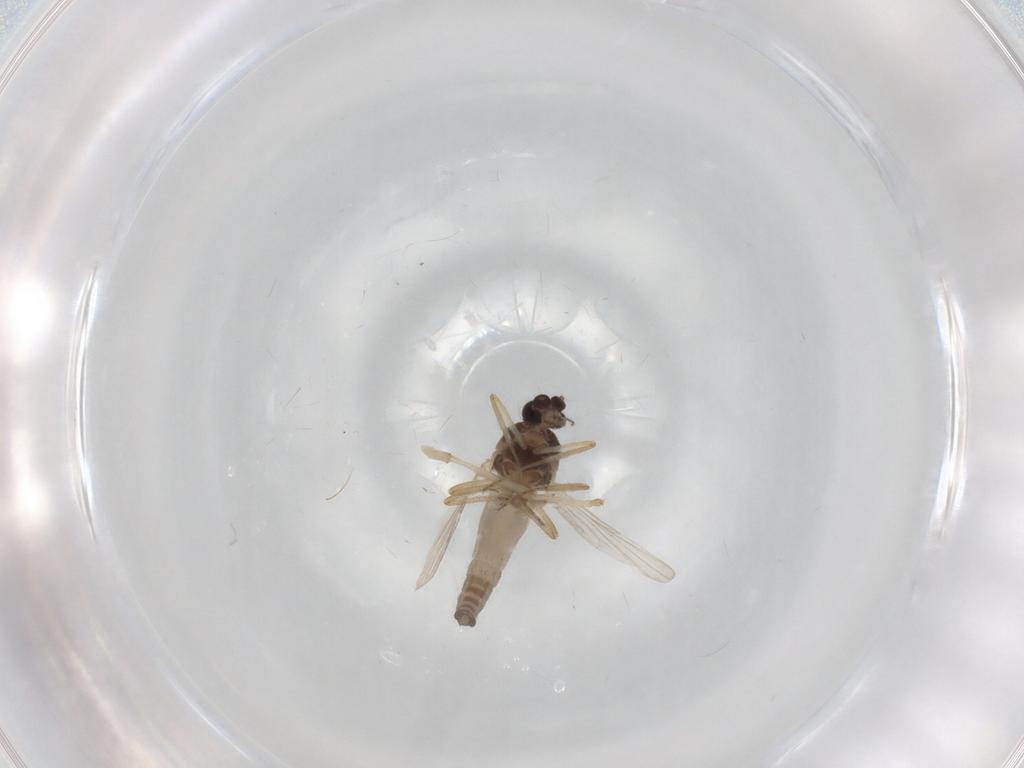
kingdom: Animalia
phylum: Arthropoda
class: Insecta
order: Diptera
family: Ceratopogonidae
